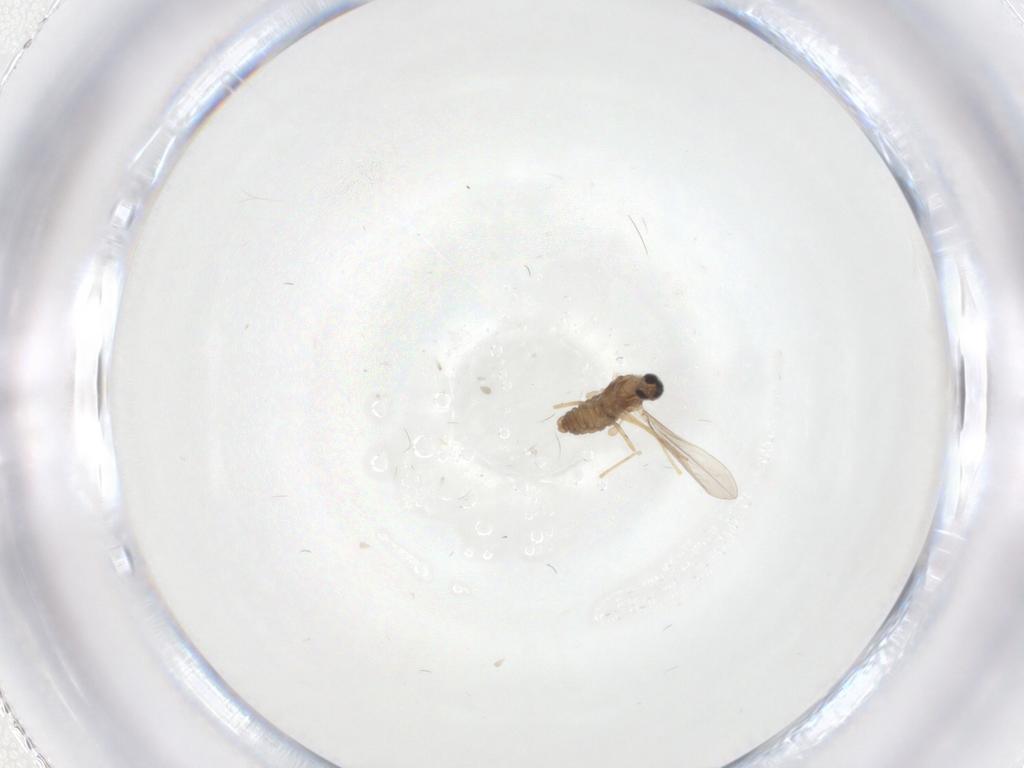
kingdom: Animalia
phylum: Arthropoda
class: Insecta
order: Diptera
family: Cecidomyiidae
